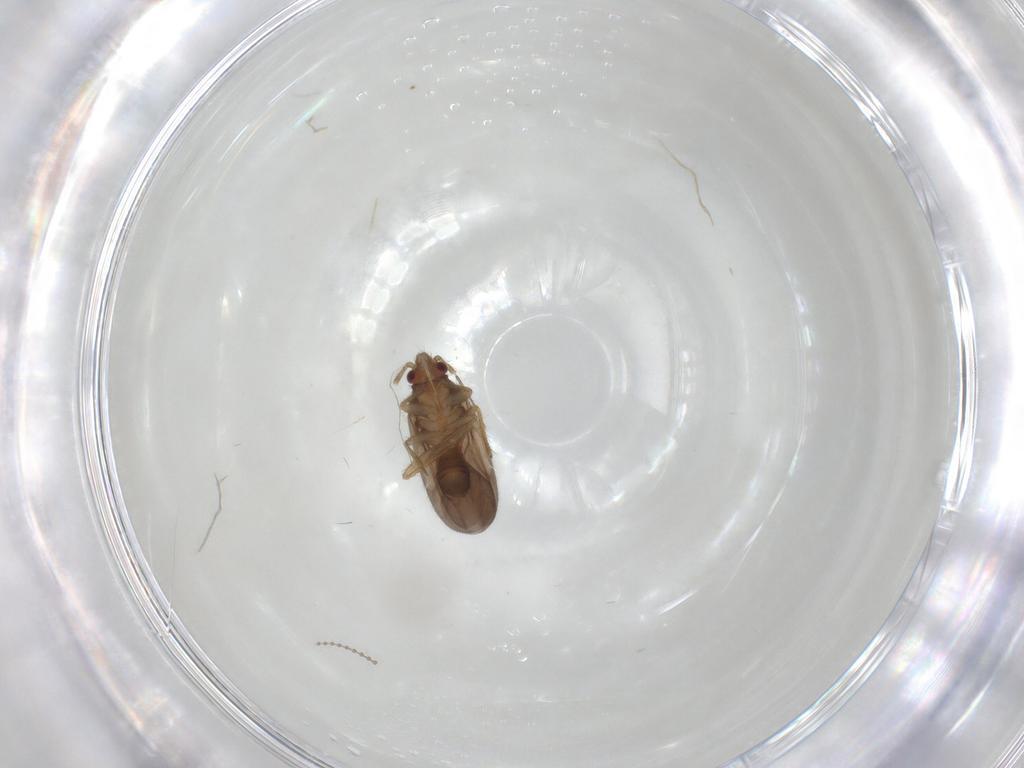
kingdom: Animalia
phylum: Arthropoda
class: Insecta
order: Hemiptera
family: Ceratocombidae
